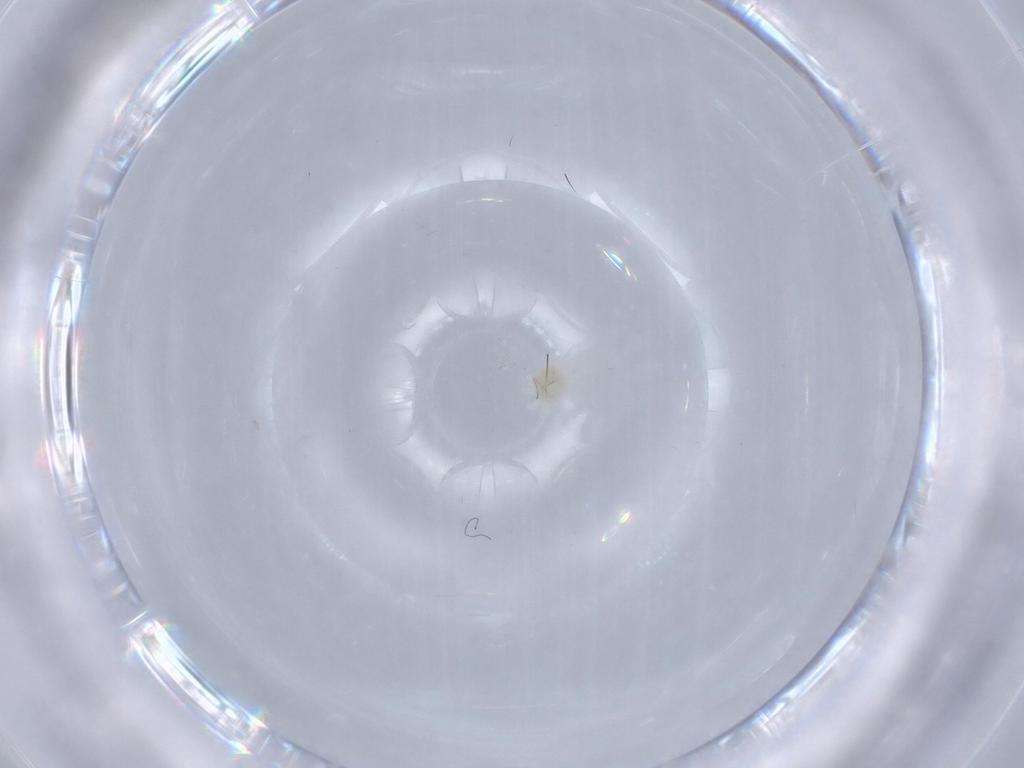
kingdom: Animalia
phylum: Arthropoda
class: Arachnida
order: Trombidiformes
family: Anystidae
